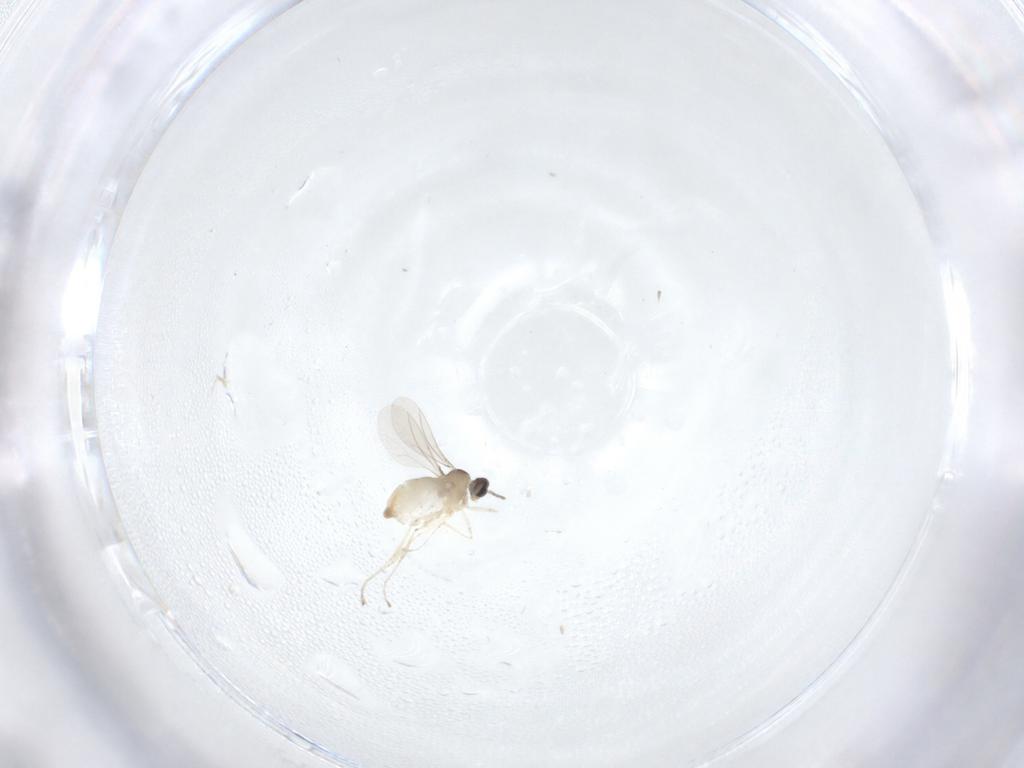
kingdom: Animalia
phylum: Arthropoda
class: Insecta
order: Diptera
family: Cecidomyiidae
